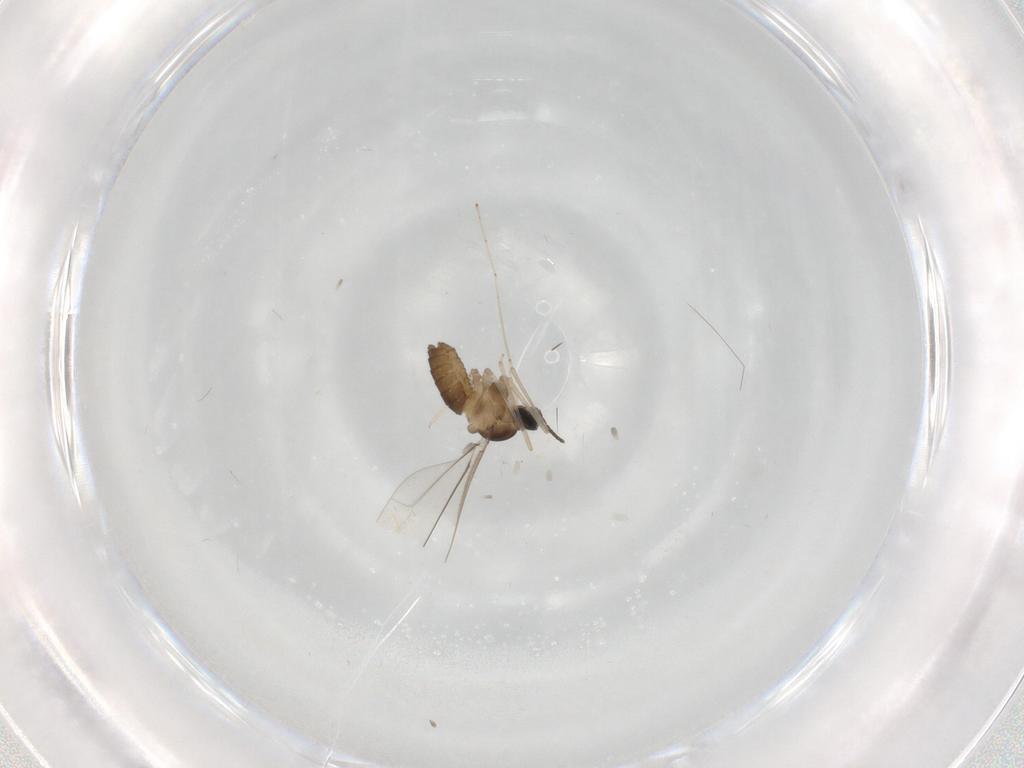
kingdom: Animalia
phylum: Arthropoda
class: Insecta
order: Diptera
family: Cecidomyiidae
